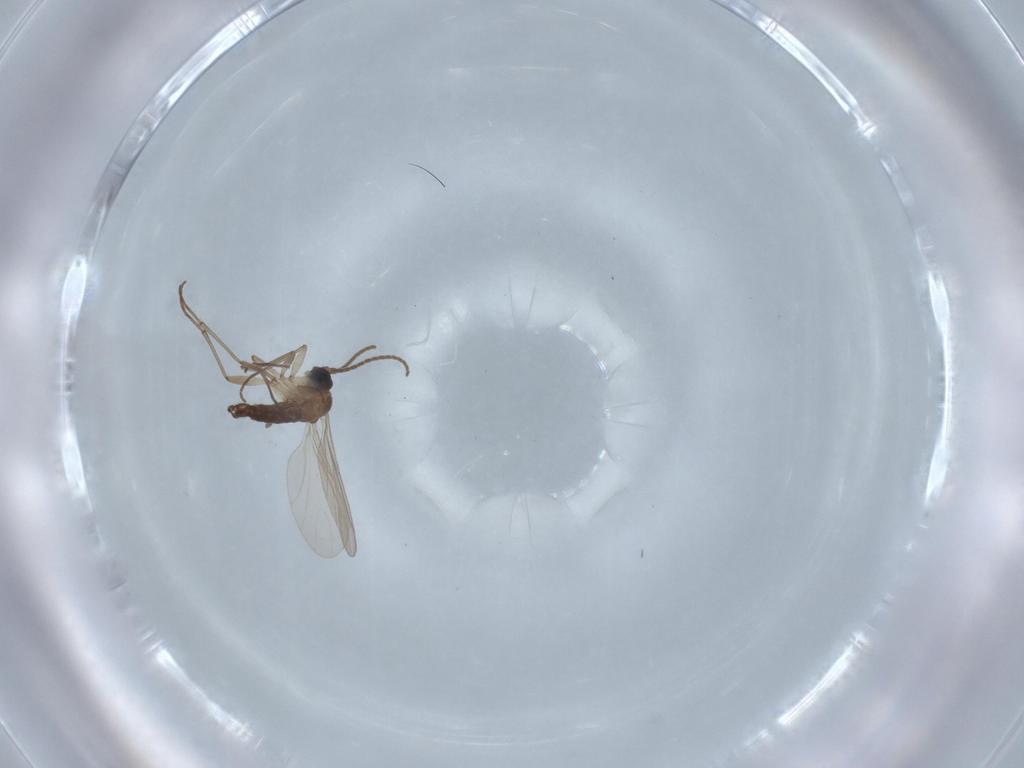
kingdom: Animalia
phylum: Arthropoda
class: Insecta
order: Diptera
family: Sciaridae
